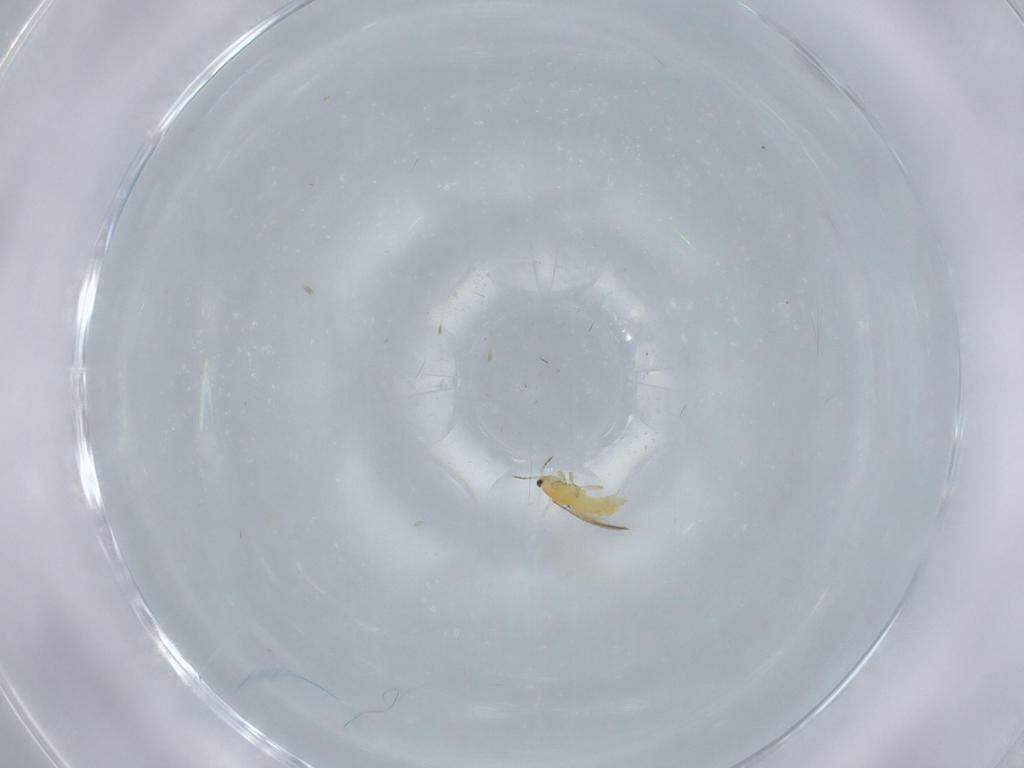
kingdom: Animalia
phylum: Arthropoda
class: Insecta
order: Thysanoptera
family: Thripidae
